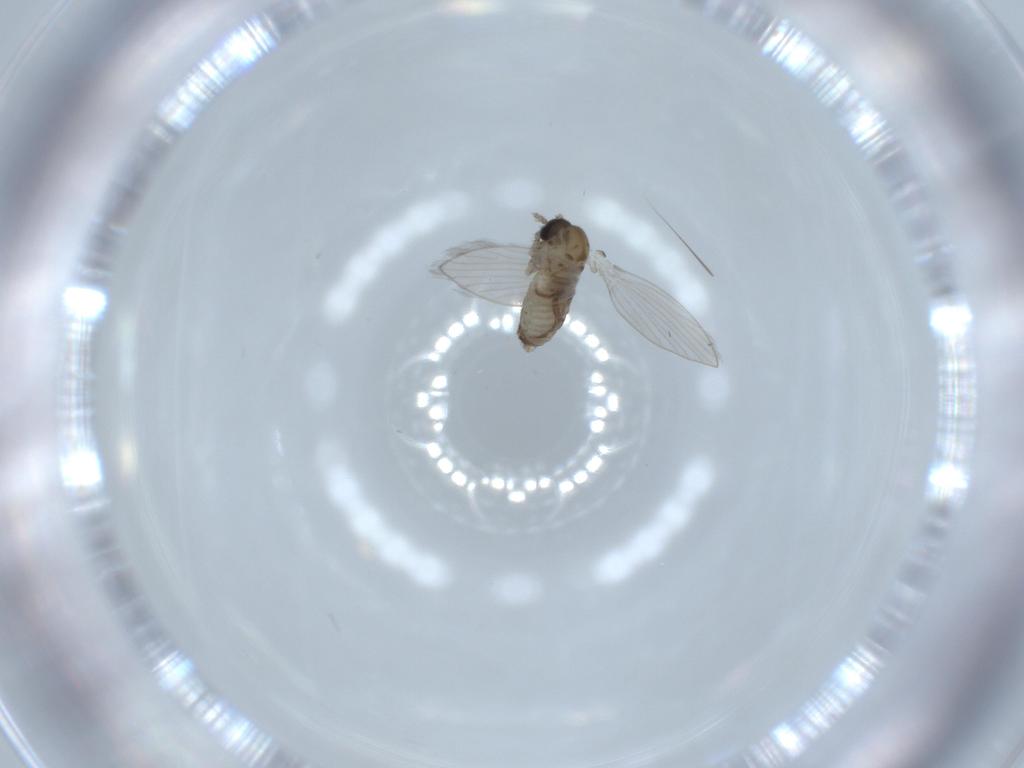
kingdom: Animalia
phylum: Arthropoda
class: Insecta
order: Diptera
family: Psychodidae
